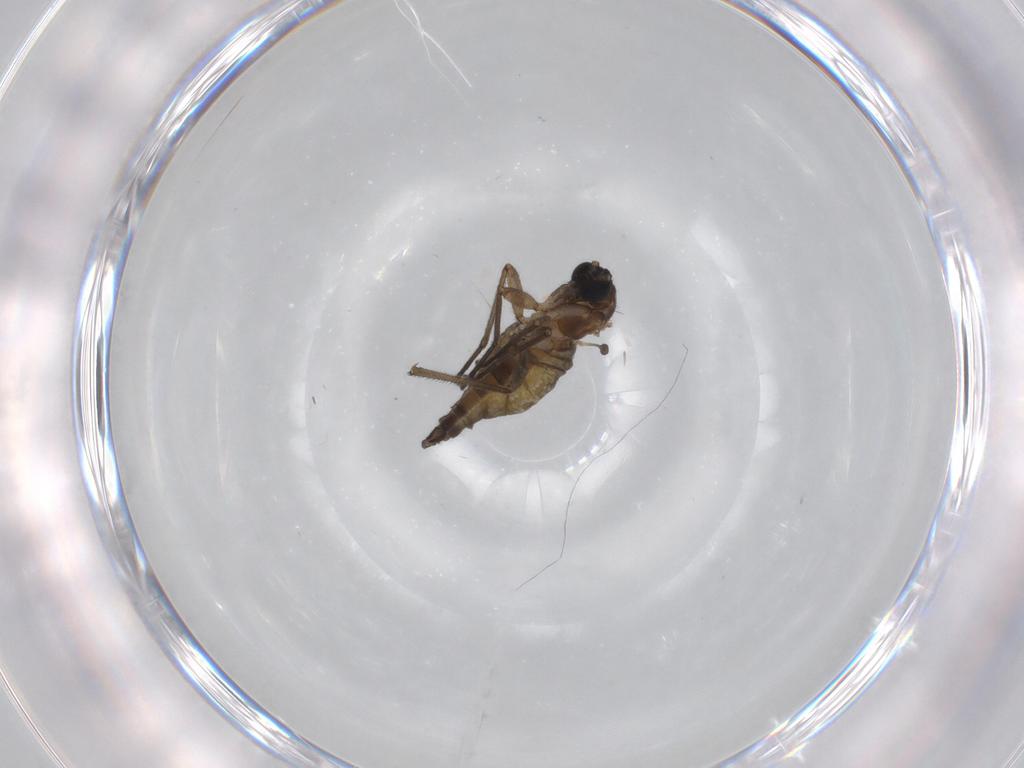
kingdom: Animalia
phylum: Arthropoda
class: Insecta
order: Diptera
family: Sciaridae
